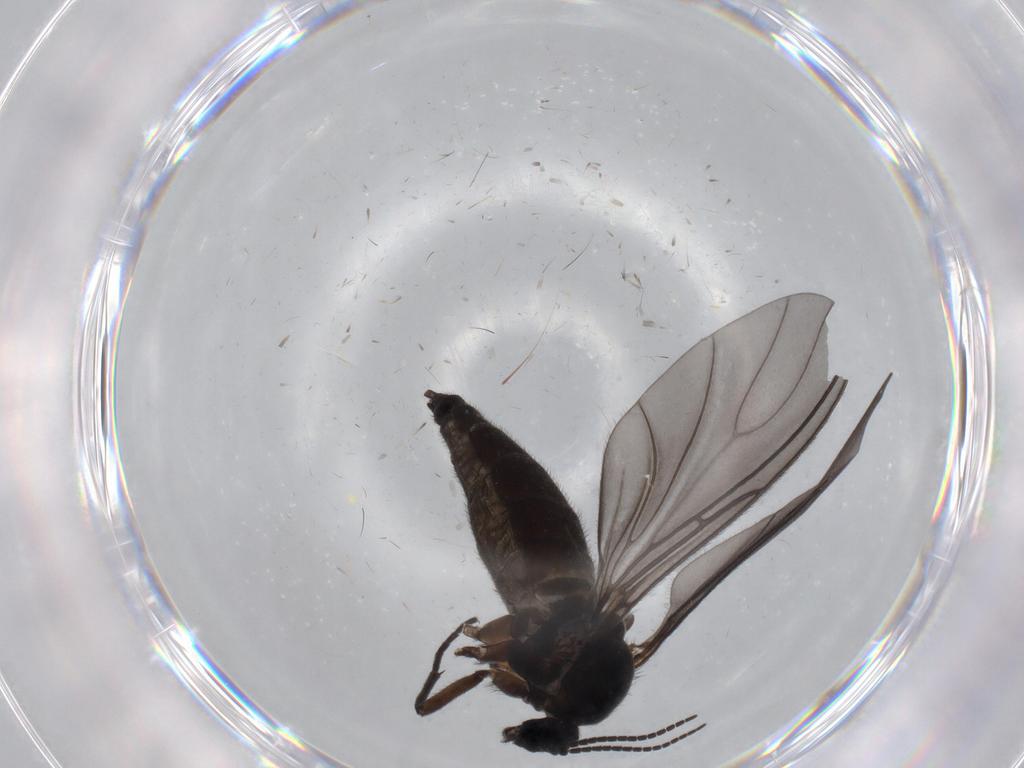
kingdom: Animalia
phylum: Arthropoda
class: Insecta
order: Diptera
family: Sciaridae
